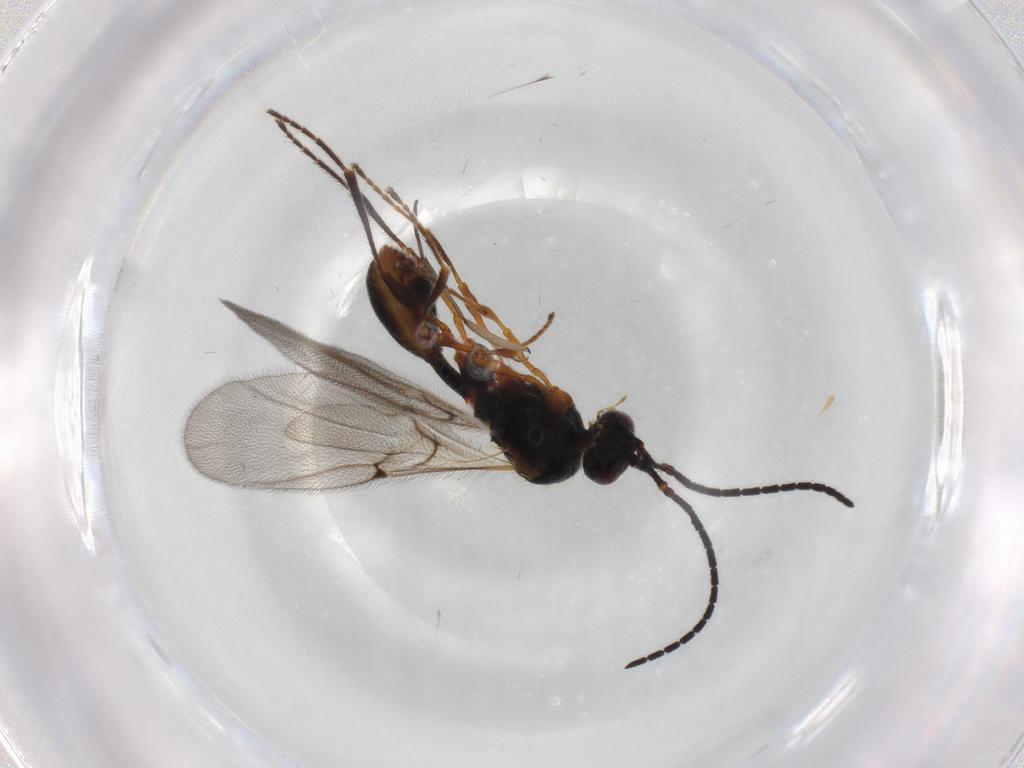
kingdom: Animalia
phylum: Arthropoda
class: Insecta
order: Hymenoptera
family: Diapriidae
